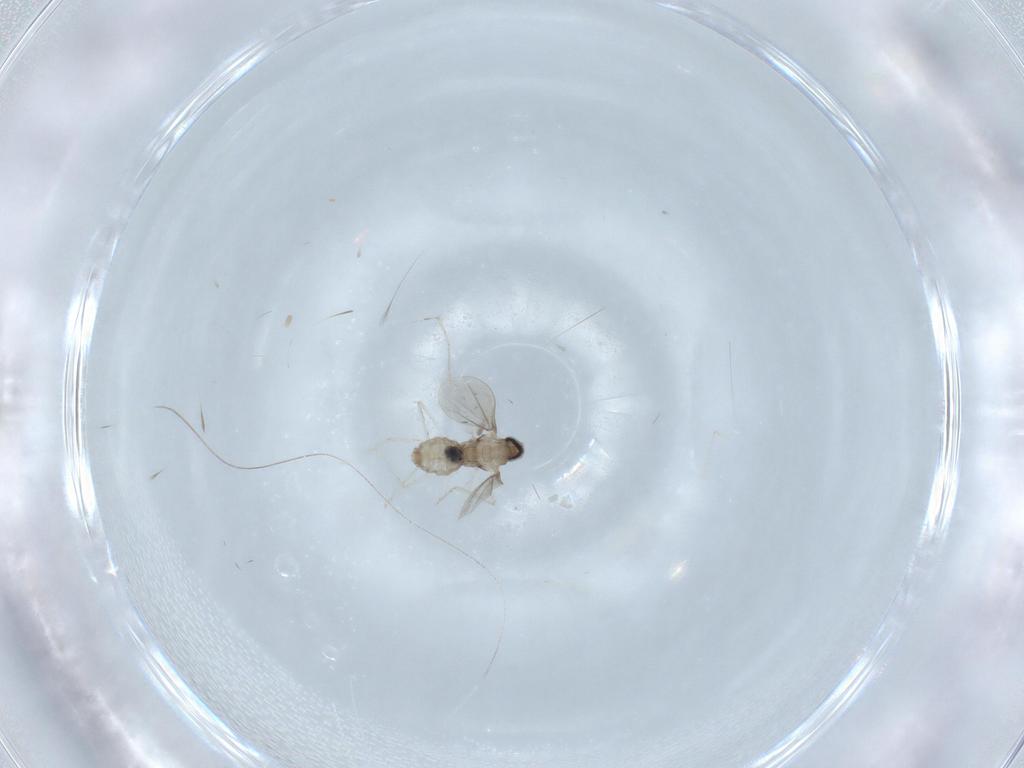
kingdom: Animalia
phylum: Arthropoda
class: Insecta
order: Diptera
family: Cecidomyiidae
